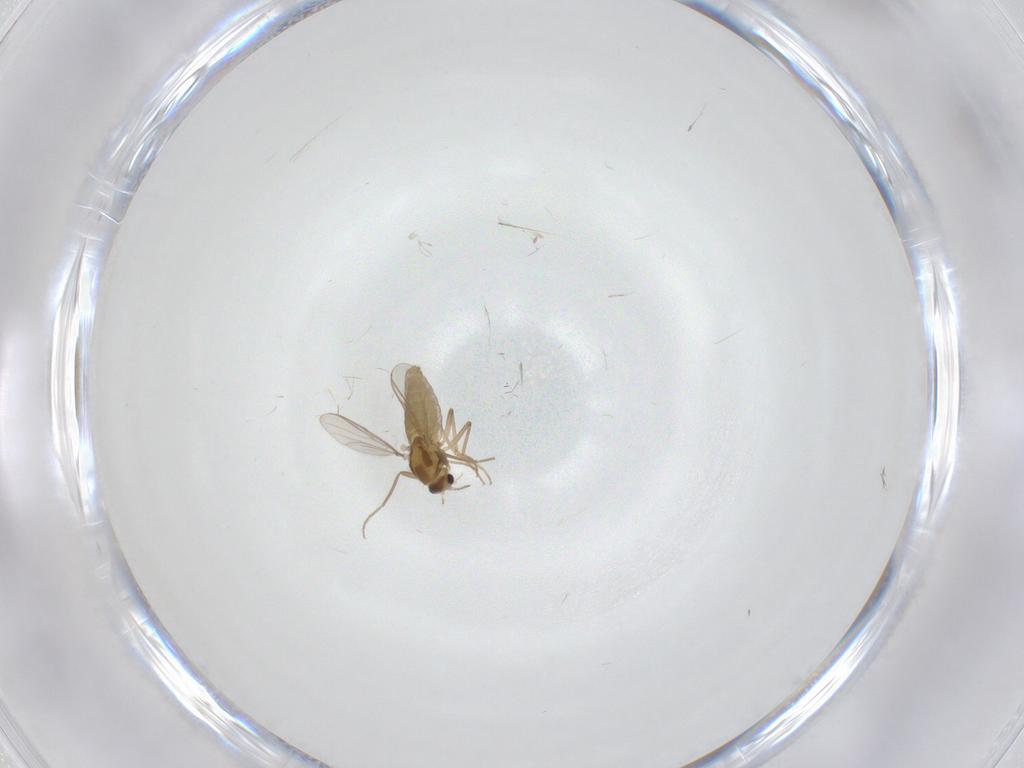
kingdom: Animalia
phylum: Arthropoda
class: Insecta
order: Diptera
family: Chironomidae
